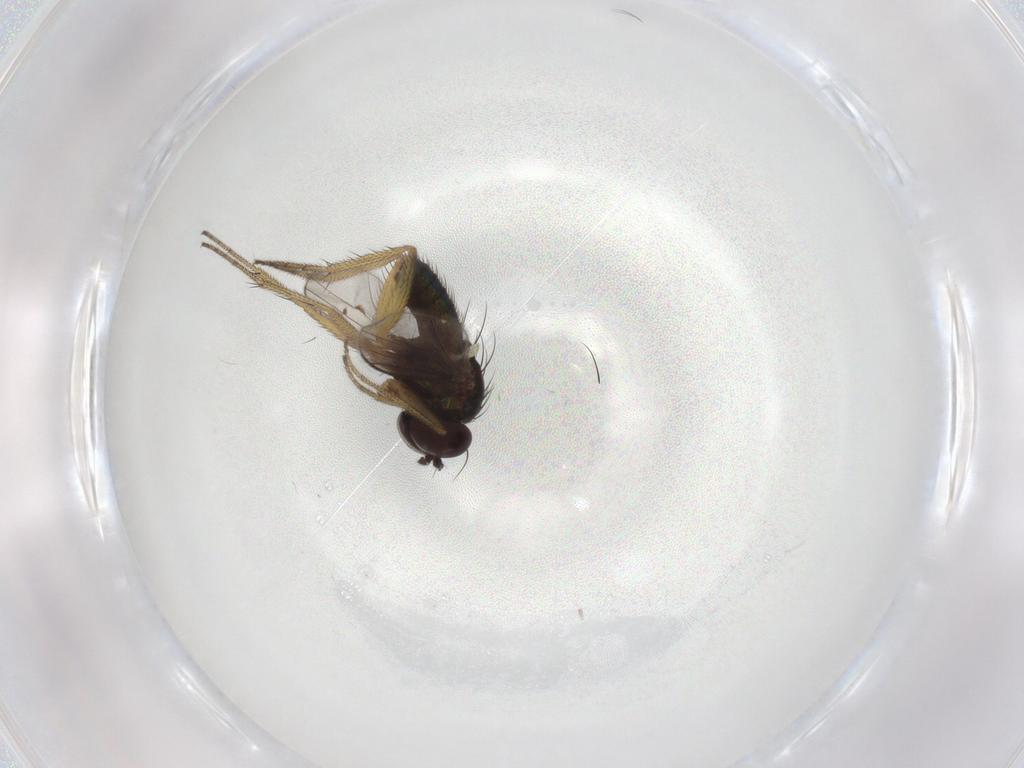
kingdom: Animalia
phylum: Arthropoda
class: Insecta
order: Diptera
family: Dolichopodidae
